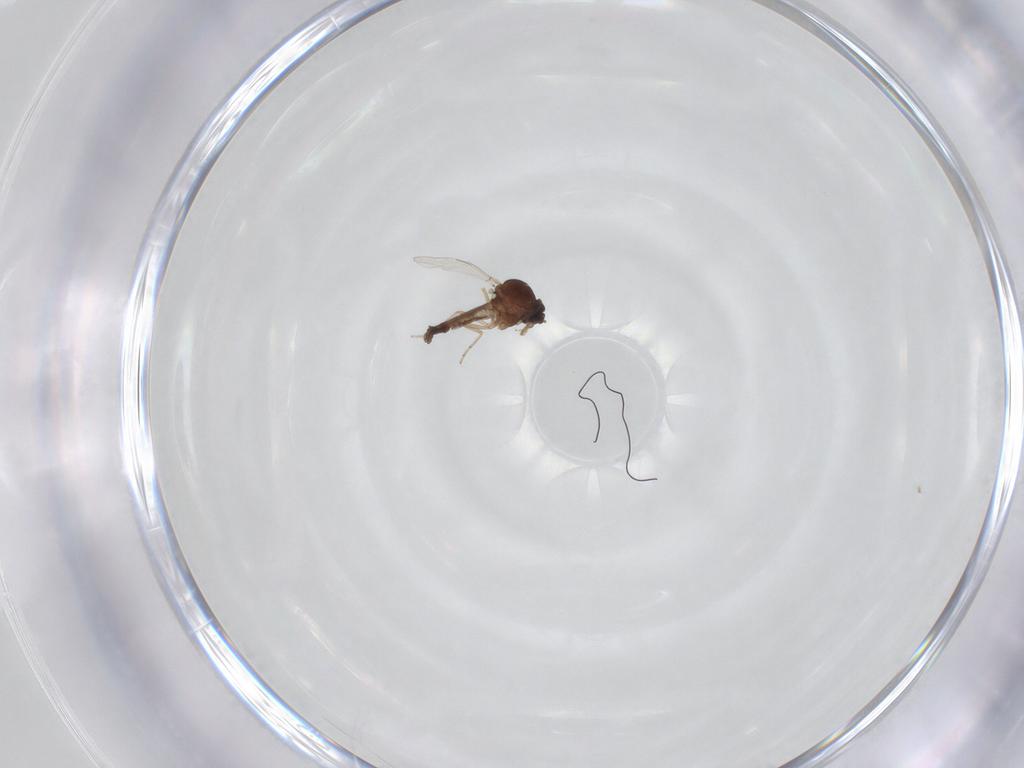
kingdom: Animalia
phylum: Arthropoda
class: Insecta
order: Diptera
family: Ceratopogonidae
